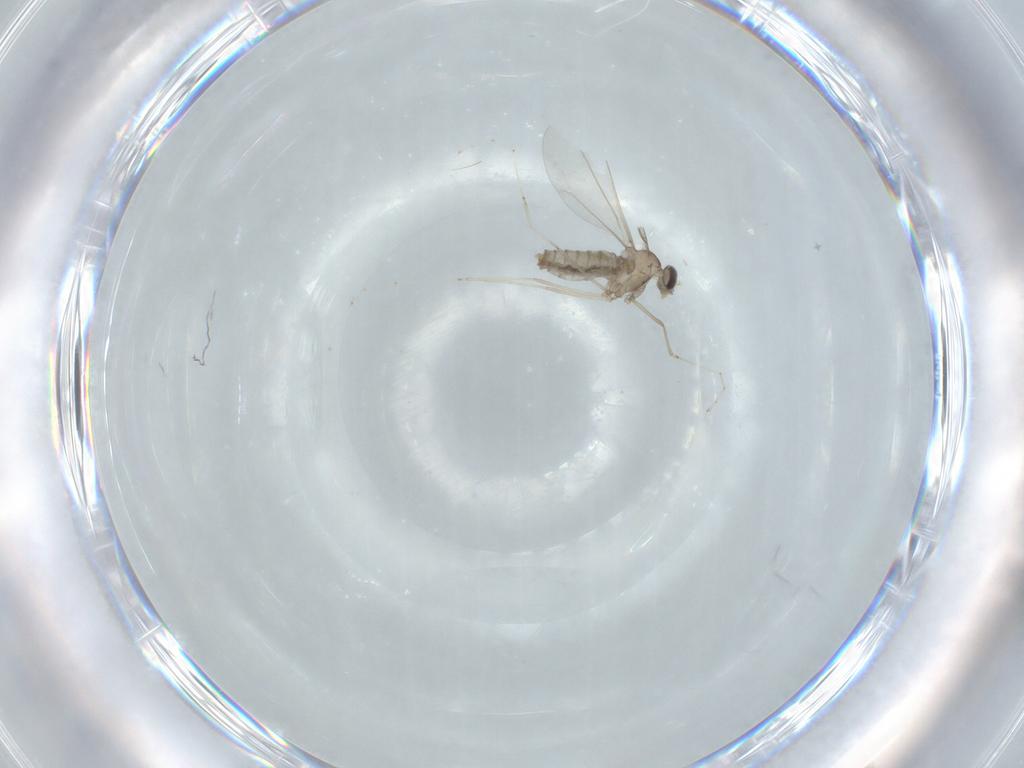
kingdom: Animalia
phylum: Arthropoda
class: Insecta
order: Diptera
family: Cecidomyiidae
